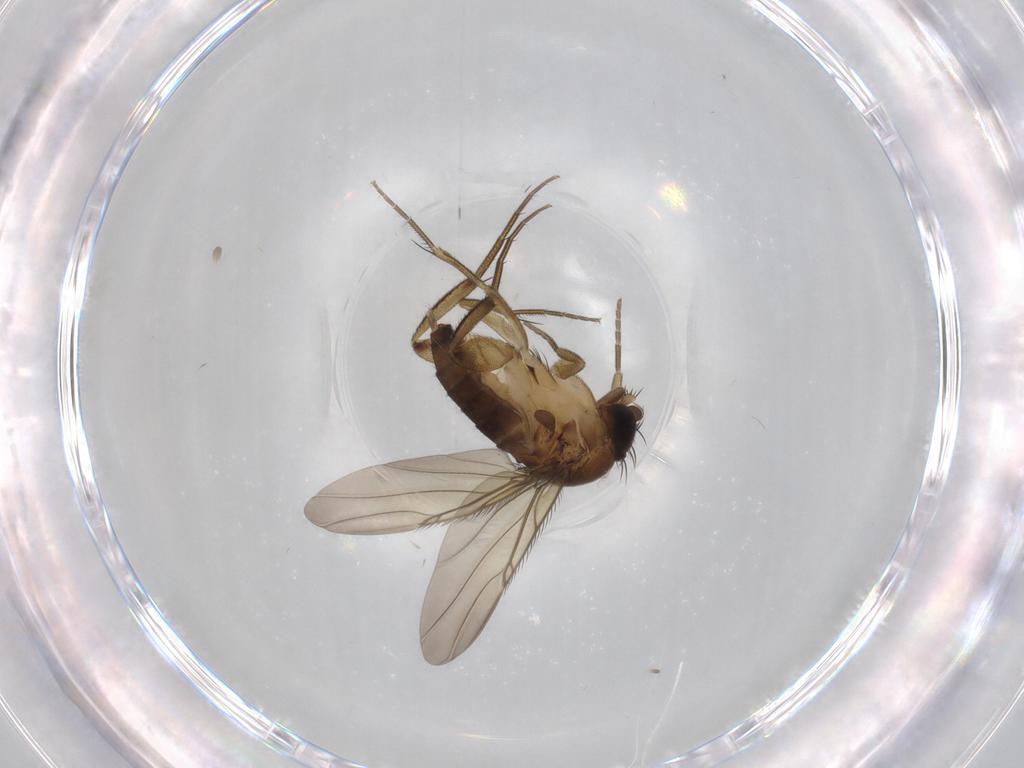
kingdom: Animalia
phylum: Arthropoda
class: Insecta
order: Diptera
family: Phoridae
